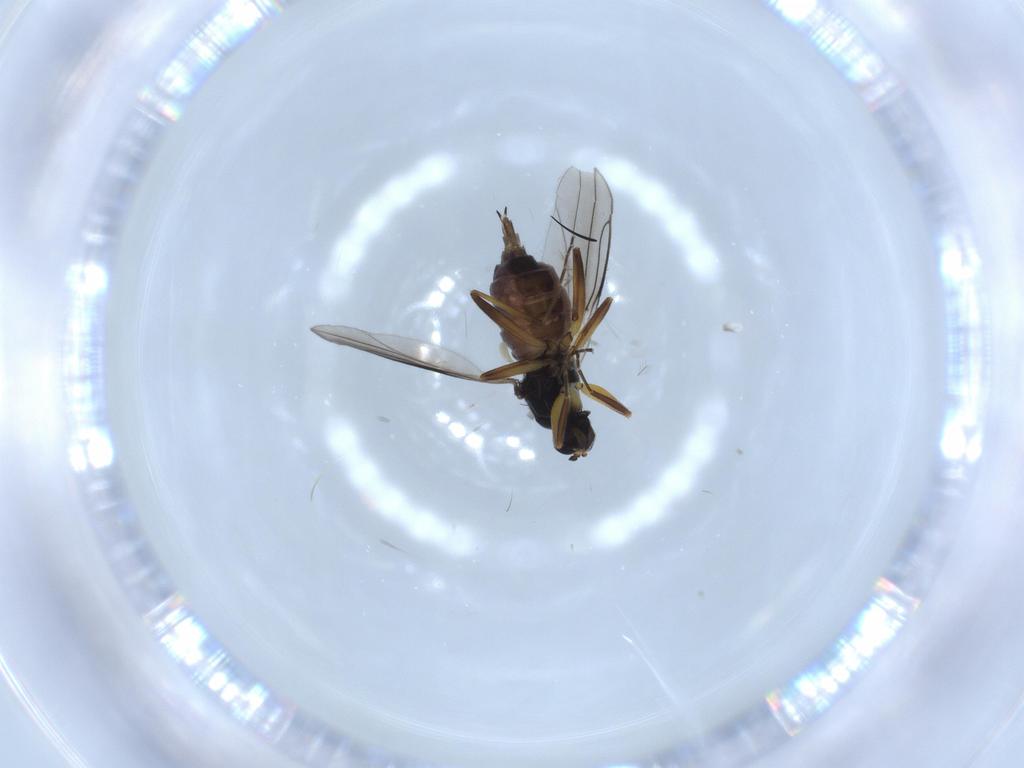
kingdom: Animalia
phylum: Arthropoda
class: Insecta
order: Diptera
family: Hybotidae
